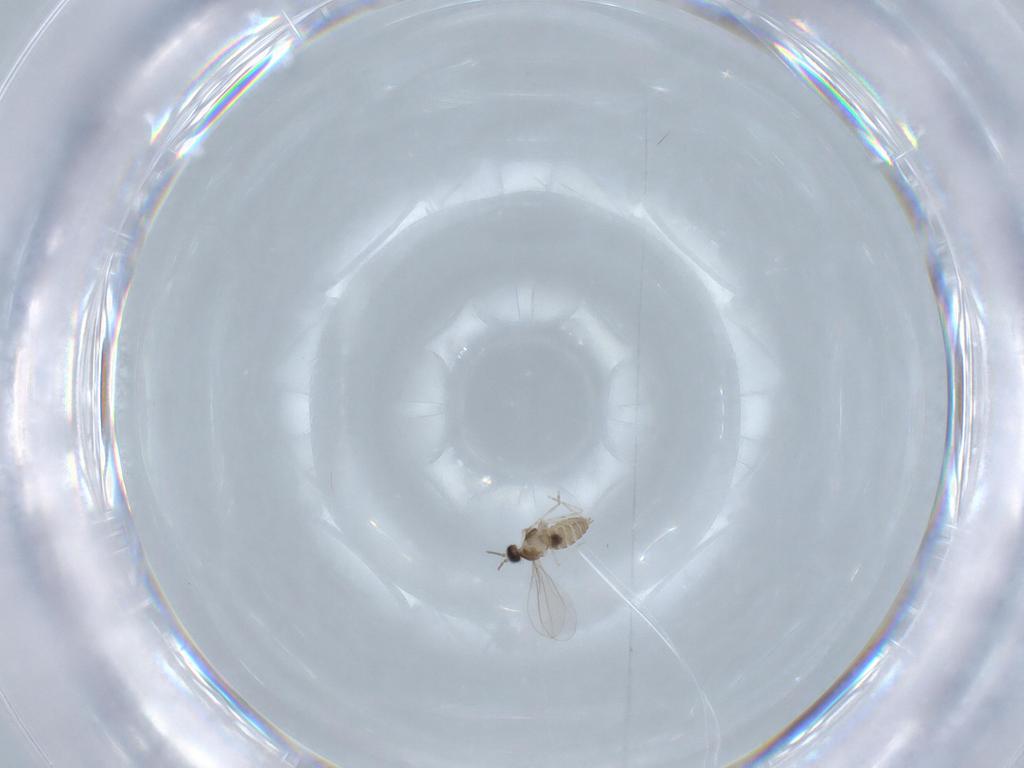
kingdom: Animalia
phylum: Arthropoda
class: Insecta
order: Diptera
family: Cecidomyiidae
